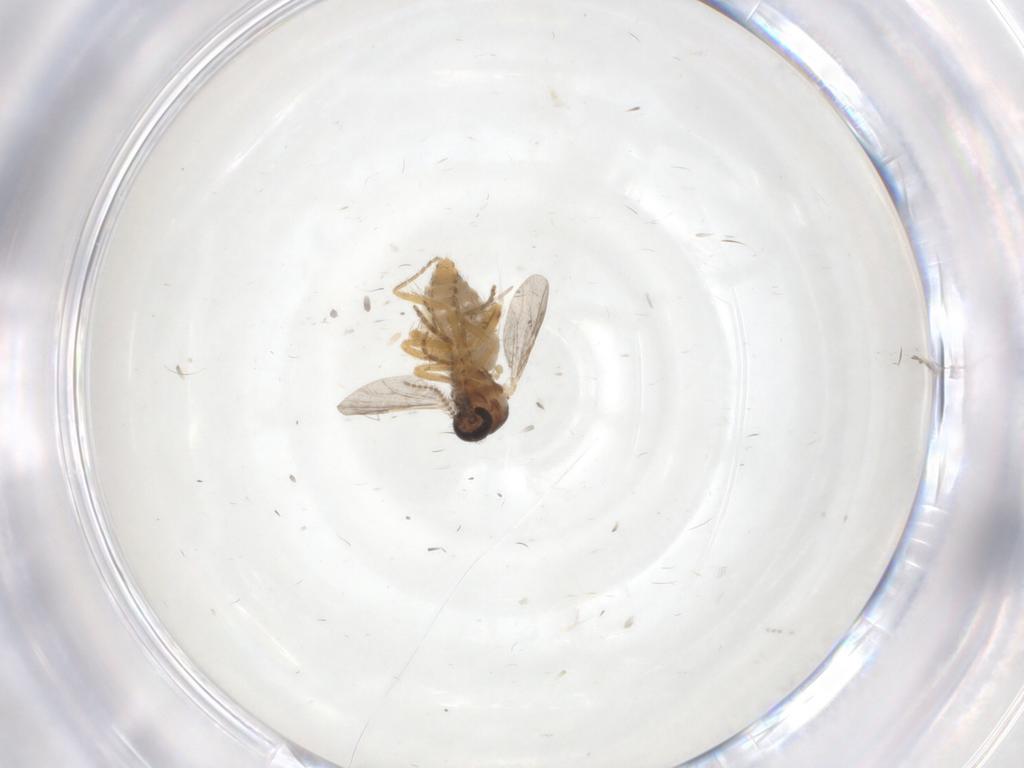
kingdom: Animalia
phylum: Arthropoda
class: Insecta
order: Diptera
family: Ceratopogonidae
